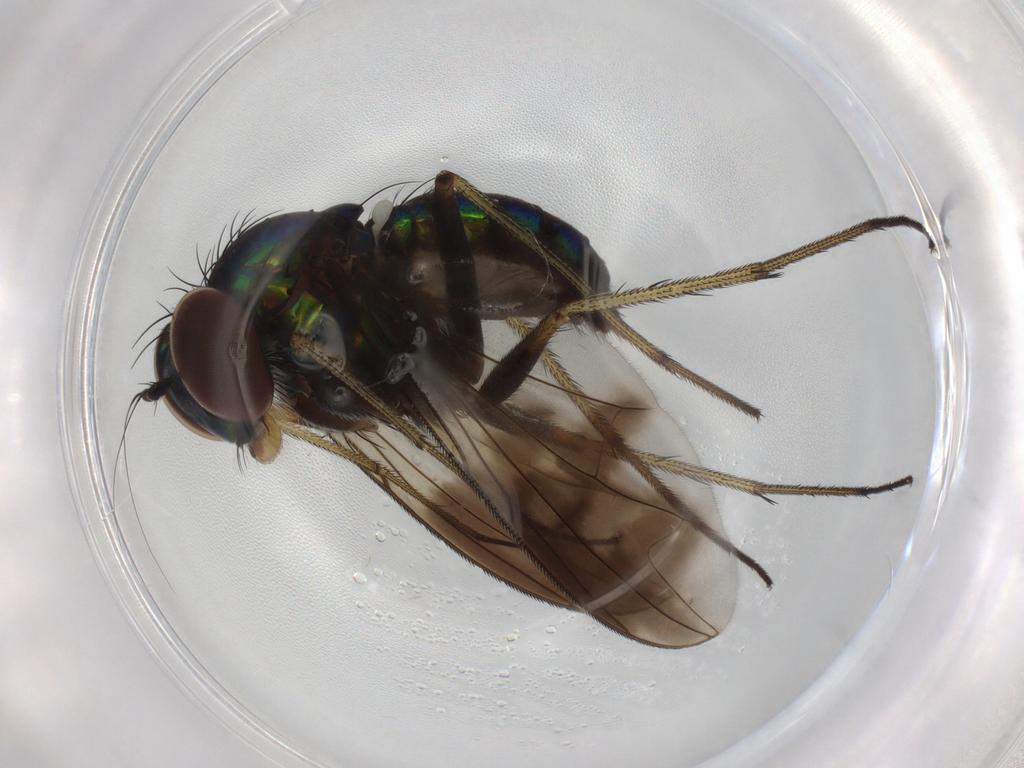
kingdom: Animalia
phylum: Arthropoda
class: Insecta
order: Diptera
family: Dolichopodidae
